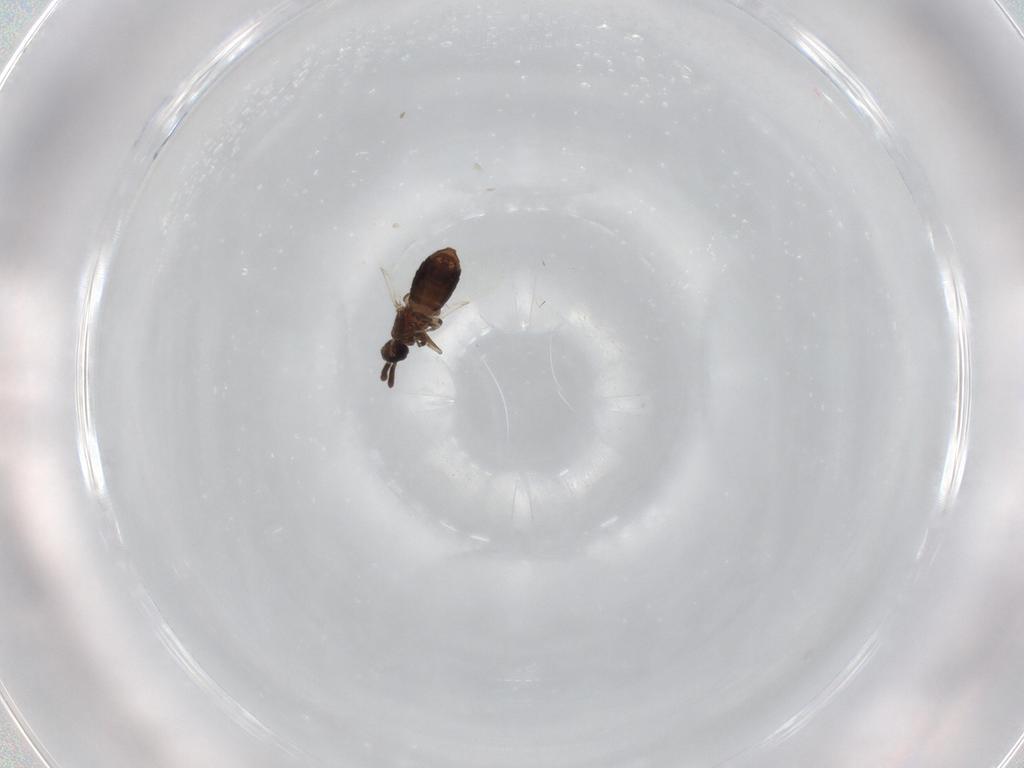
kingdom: Animalia
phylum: Arthropoda
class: Insecta
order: Diptera
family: Scatopsidae
